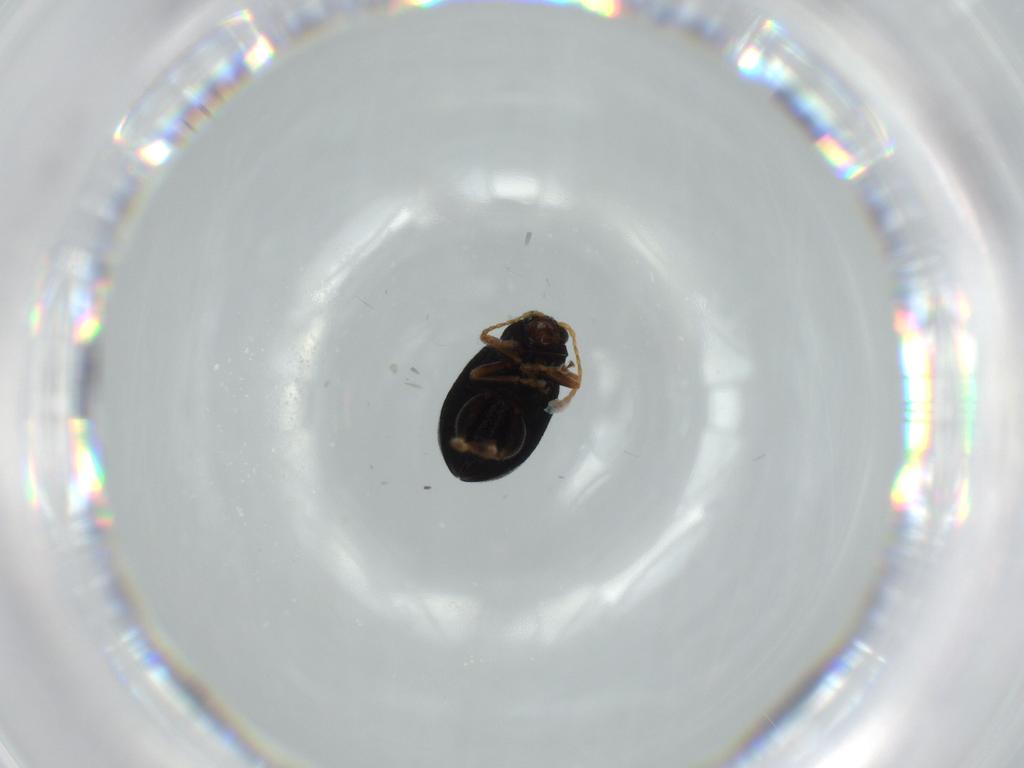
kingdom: Animalia
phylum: Arthropoda
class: Insecta
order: Coleoptera
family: Chrysomelidae
